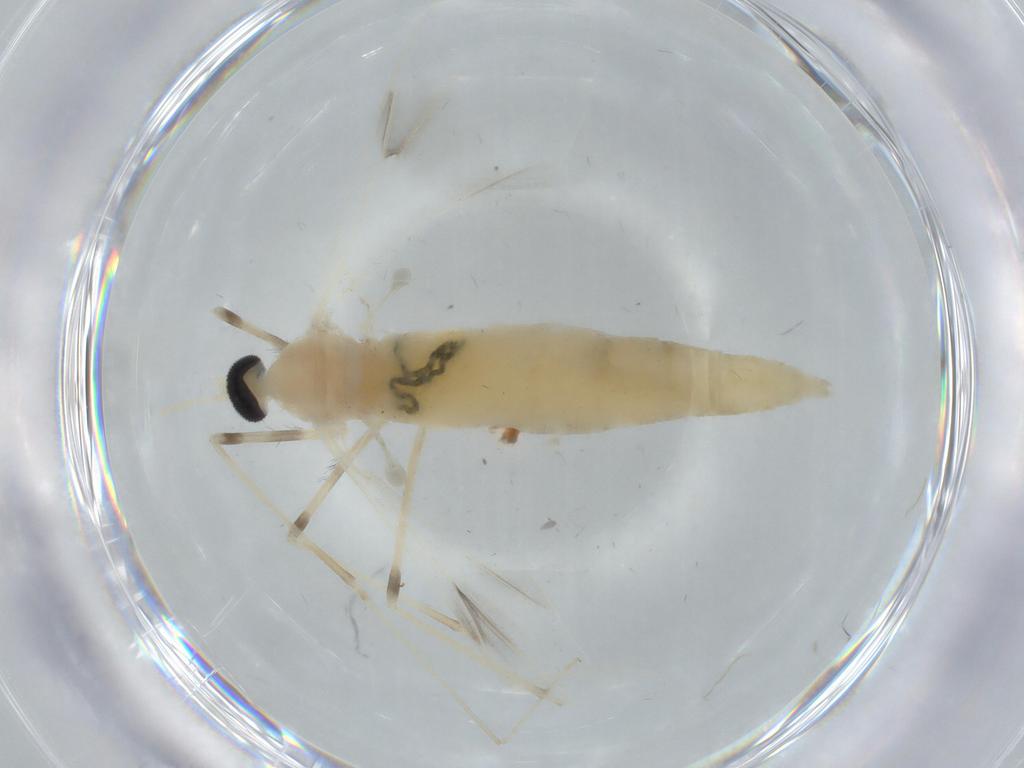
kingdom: Animalia
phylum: Arthropoda
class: Insecta
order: Diptera
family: Cecidomyiidae
